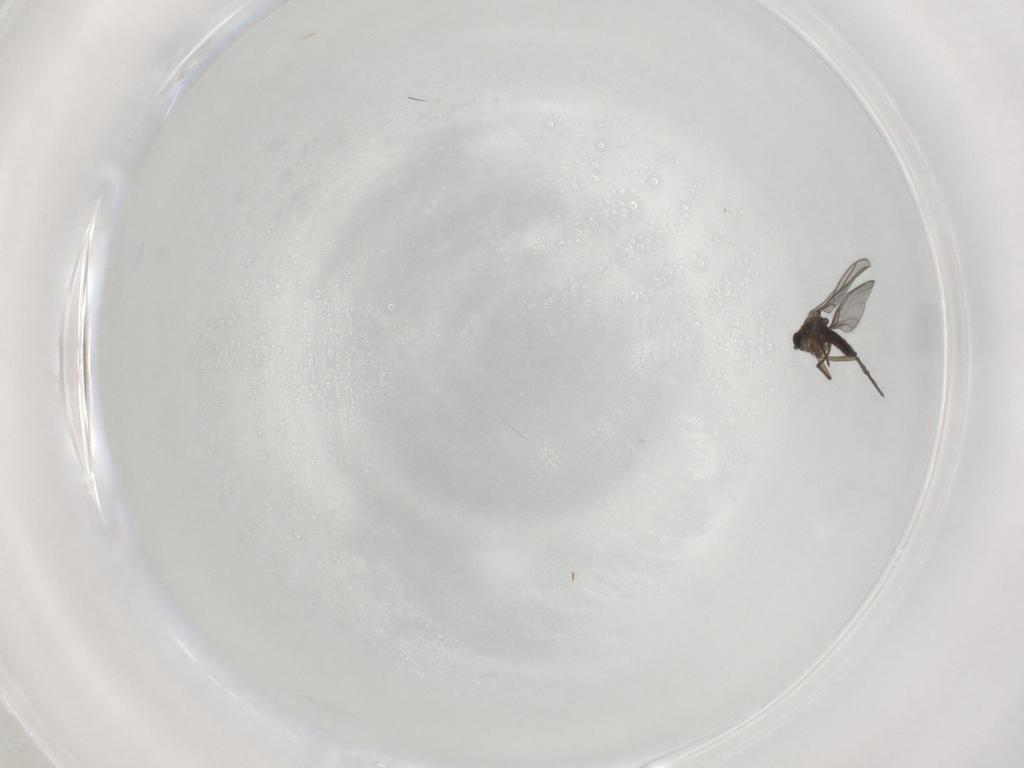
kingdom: Animalia
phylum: Arthropoda
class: Insecta
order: Diptera
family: Sciaridae
